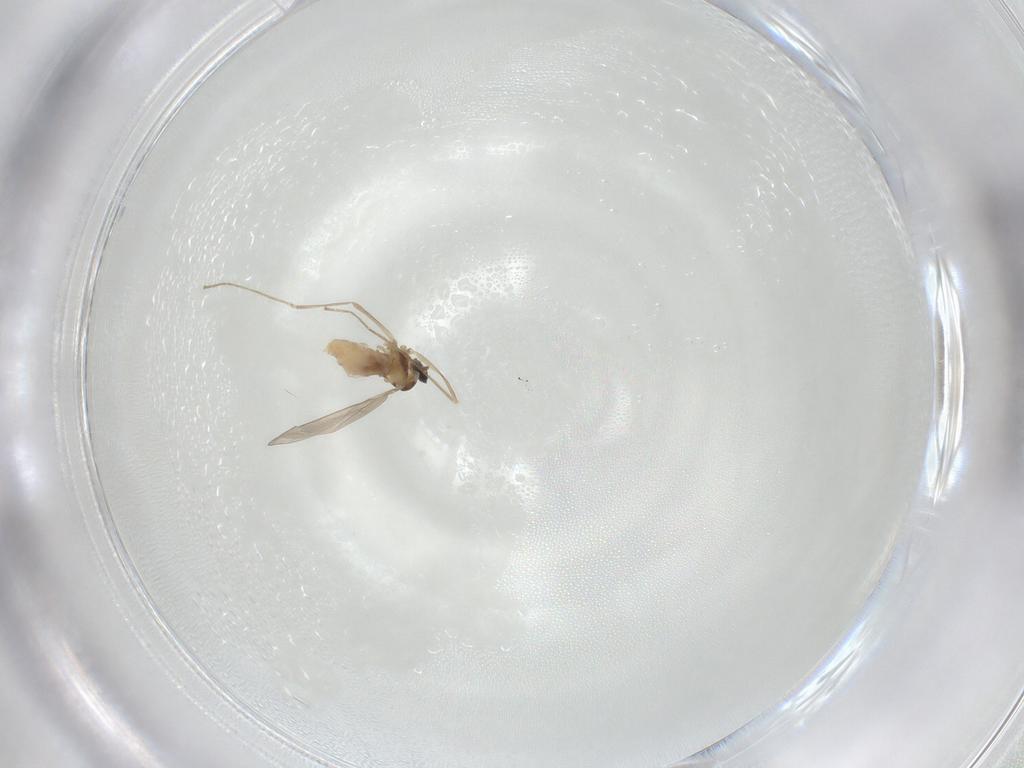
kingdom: Animalia
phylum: Arthropoda
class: Insecta
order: Diptera
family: Cecidomyiidae
